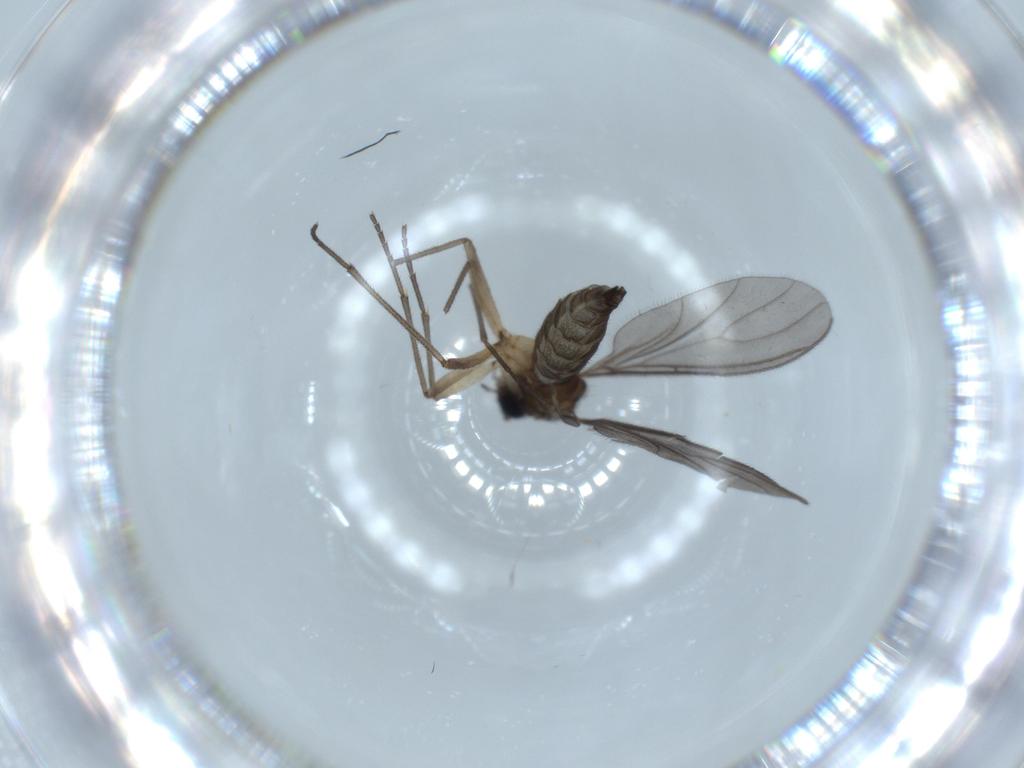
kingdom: Animalia
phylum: Arthropoda
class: Insecta
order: Diptera
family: Sciaridae
